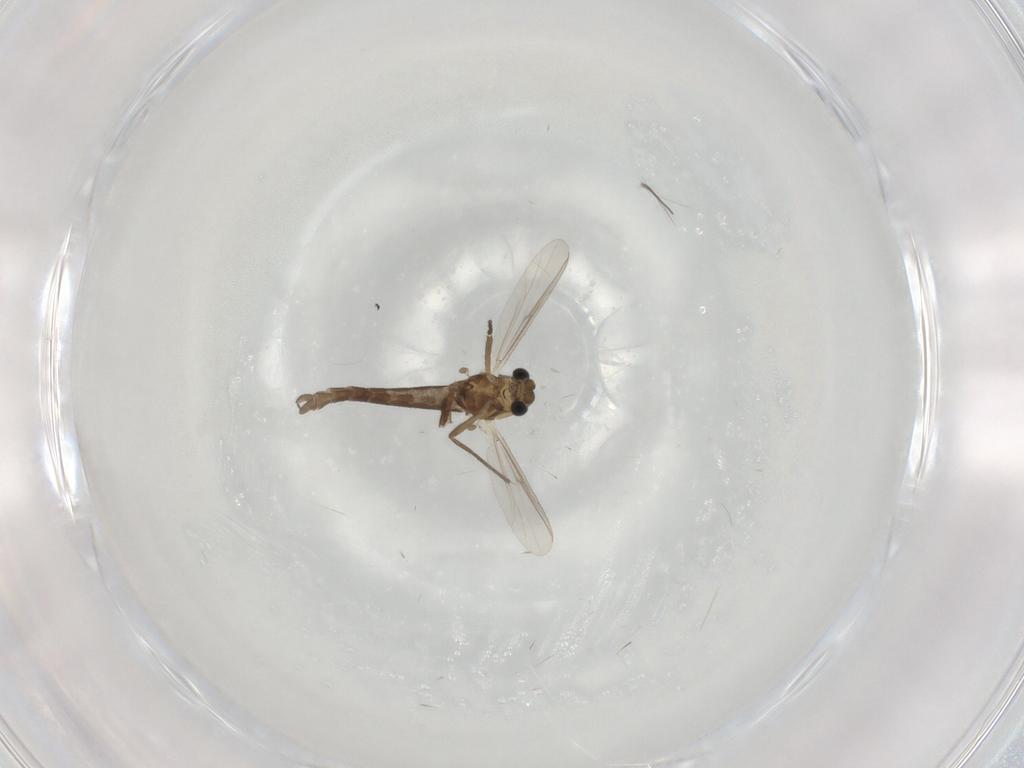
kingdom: Animalia
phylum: Arthropoda
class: Insecta
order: Diptera
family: Chironomidae
